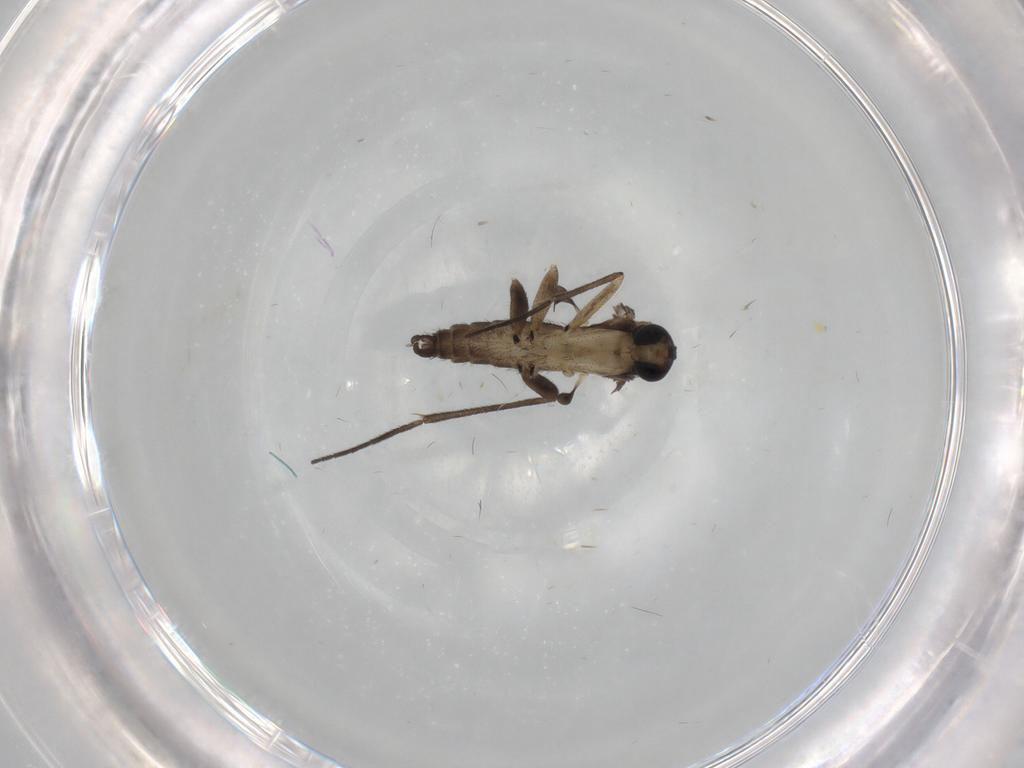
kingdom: Animalia
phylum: Arthropoda
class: Insecta
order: Diptera
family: Sciaridae
